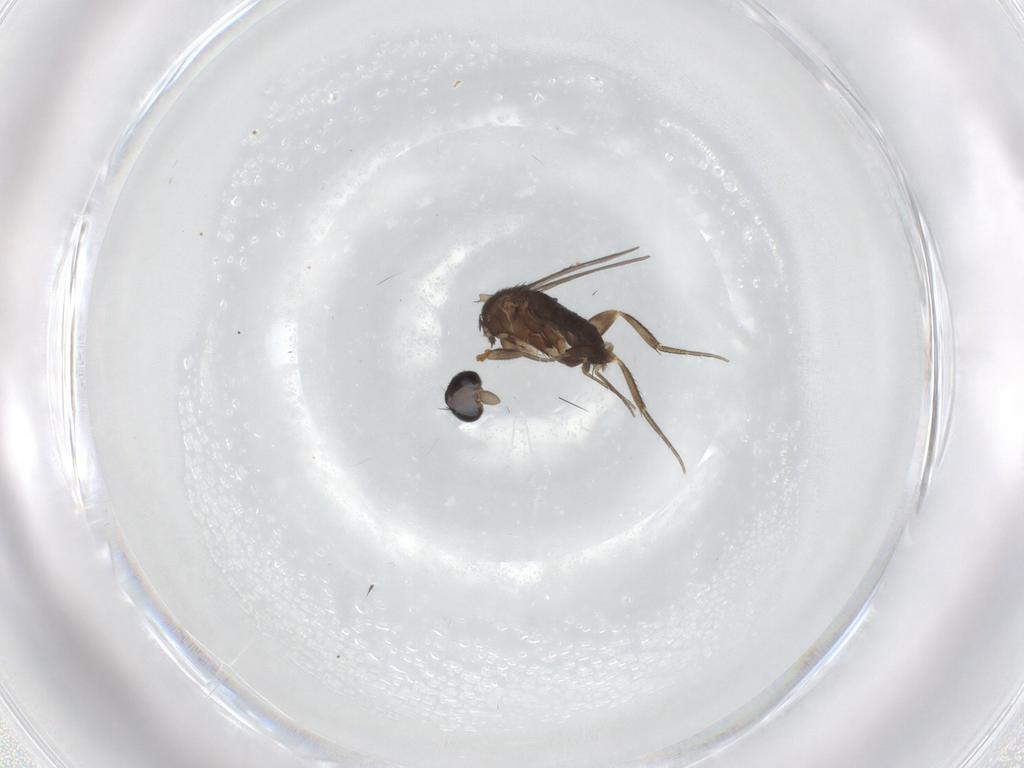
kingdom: Animalia
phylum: Arthropoda
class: Insecta
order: Diptera
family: Phoridae
